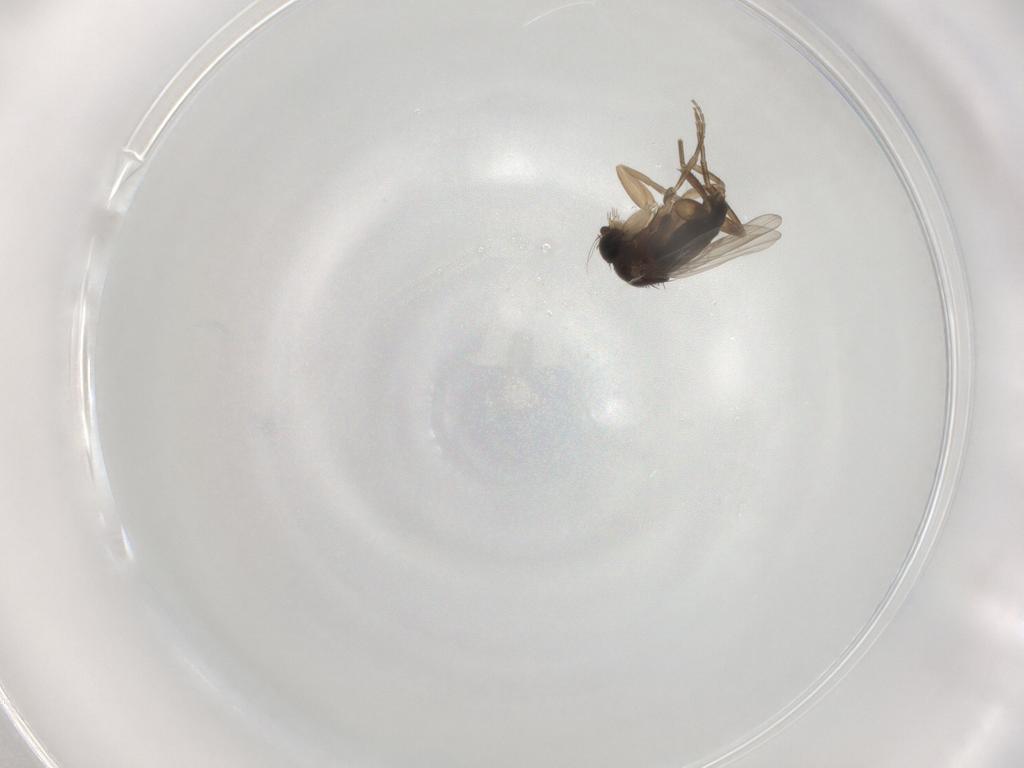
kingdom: Animalia
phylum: Arthropoda
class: Insecta
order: Diptera
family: Phoridae
